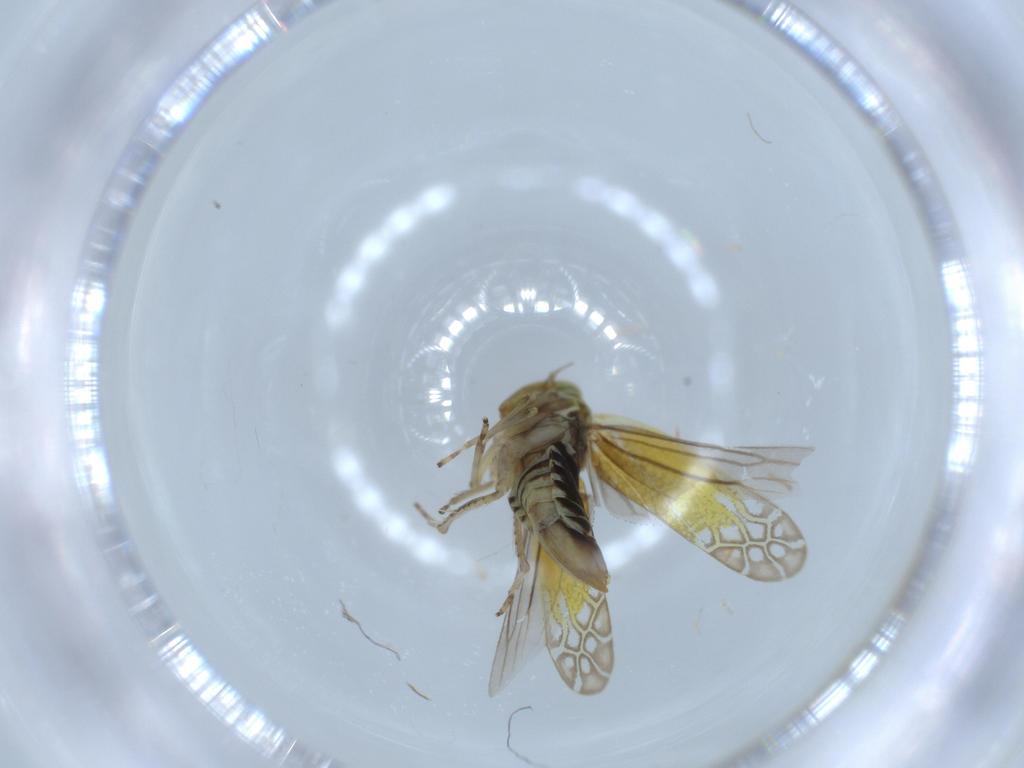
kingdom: Animalia
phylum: Arthropoda
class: Insecta
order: Hemiptera
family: Cicadellidae
